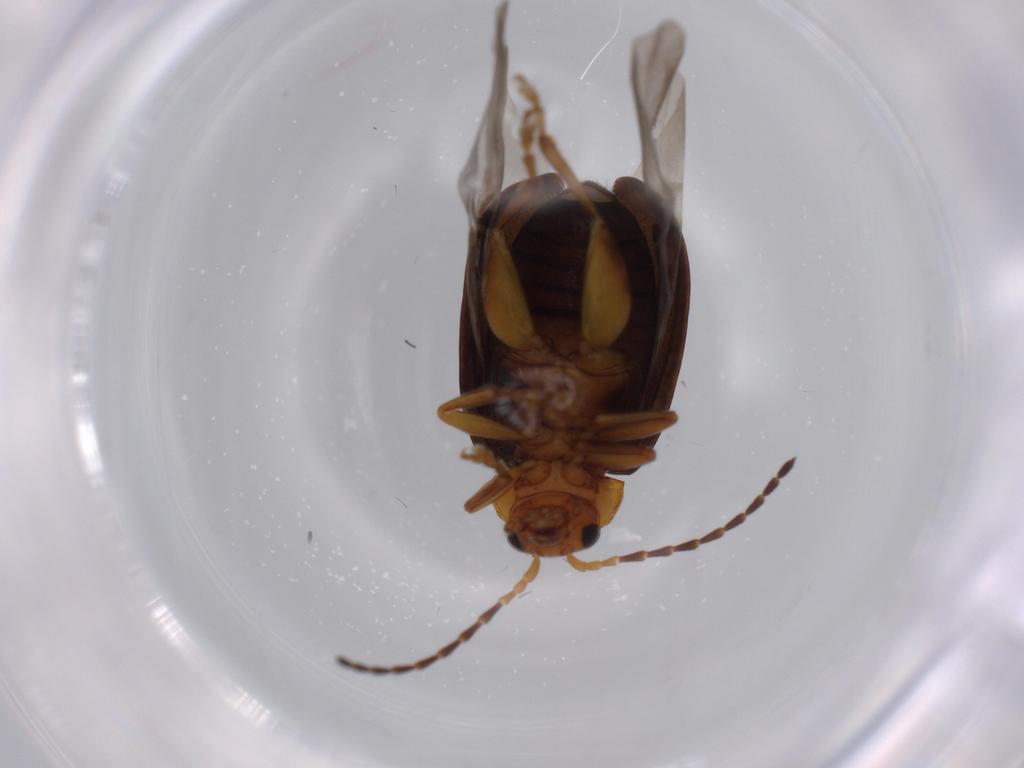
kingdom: Animalia
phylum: Arthropoda
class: Insecta
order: Coleoptera
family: Chrysomelidae
